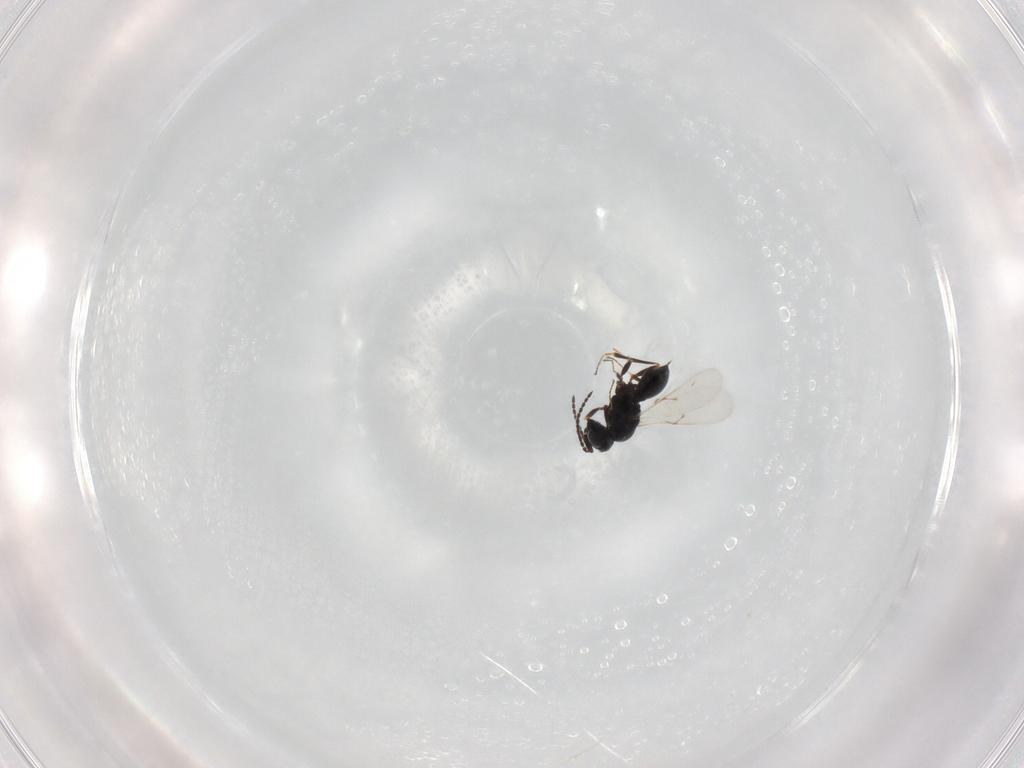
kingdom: Animalia
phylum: Arthropoda
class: Insecta
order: Hymenoptera
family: Scelionidae
